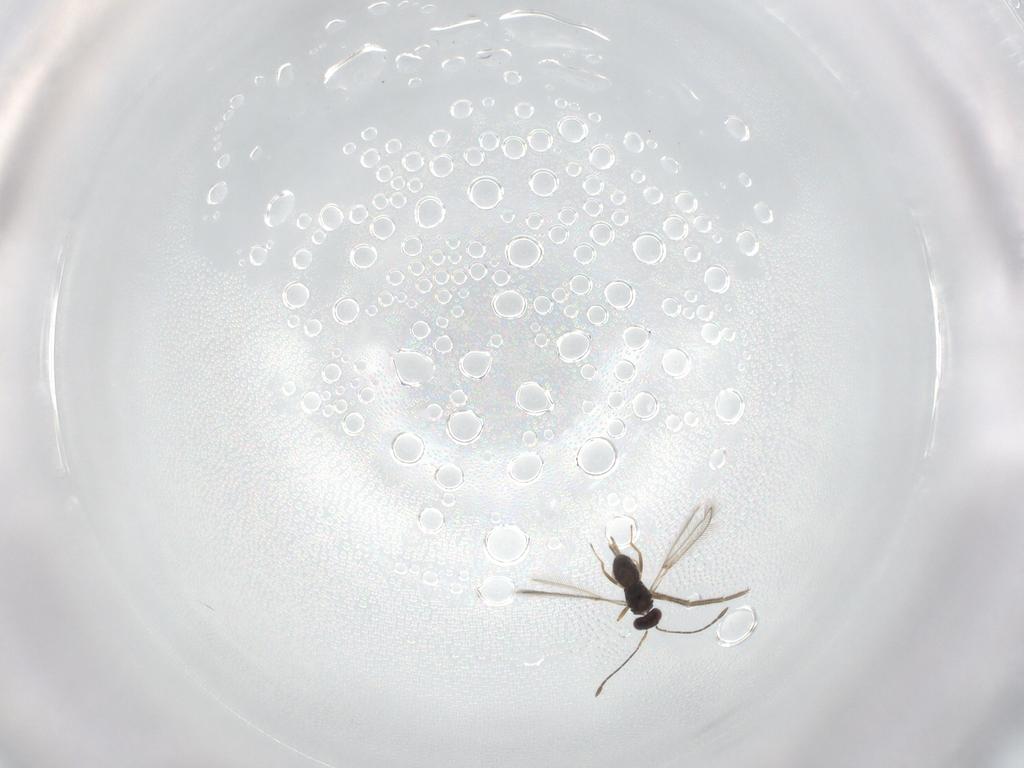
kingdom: Animalia
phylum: Arthropoda
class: Insecta
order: Hymenoptera
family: Mymaridae
